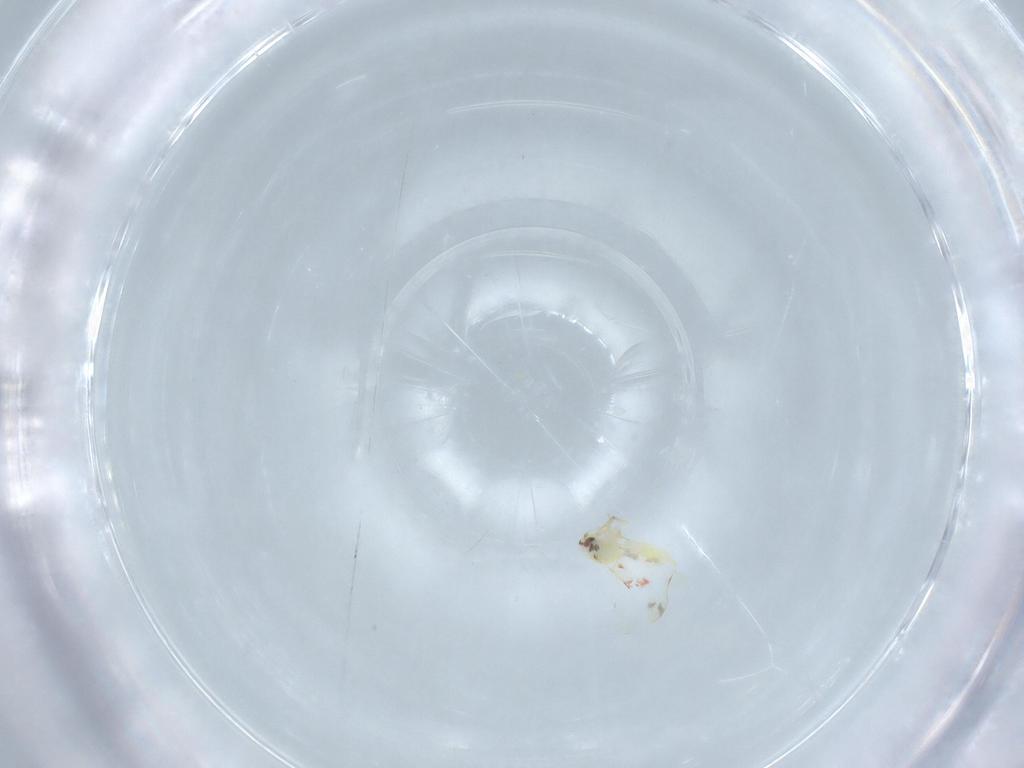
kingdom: Animalia
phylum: Arthropoda
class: Insecta
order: Hemiptera
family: Aleyrodidae
